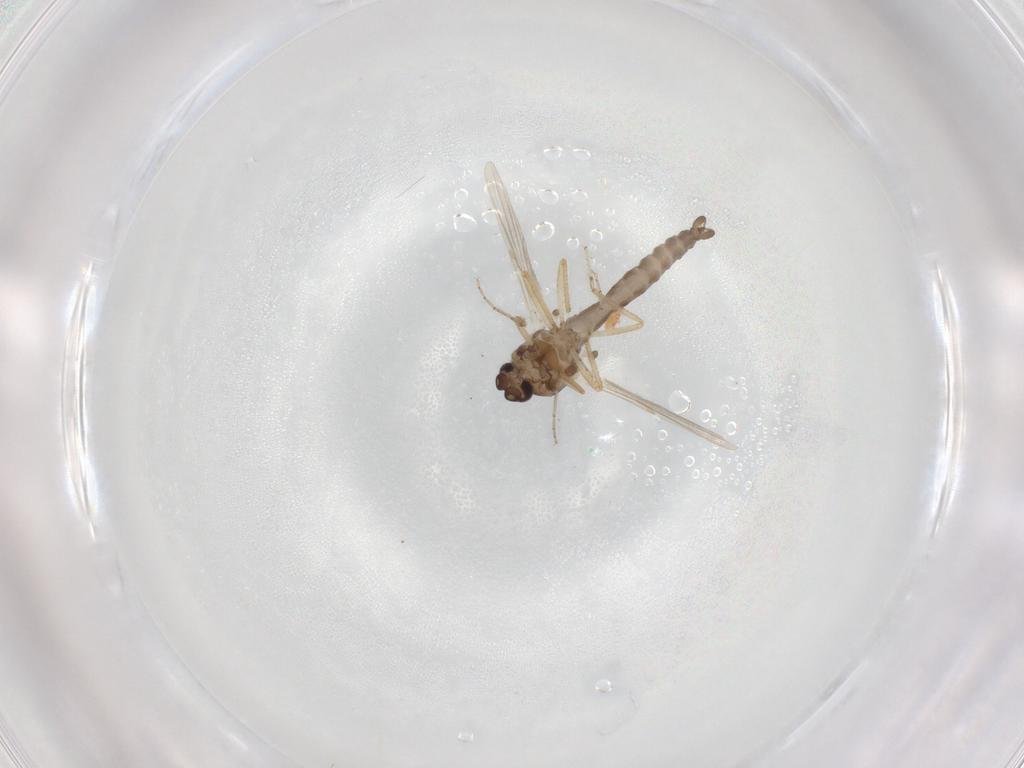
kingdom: Animalia
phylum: Arthropoda
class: Insecta
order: Diptera
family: Ceratopogonidae
